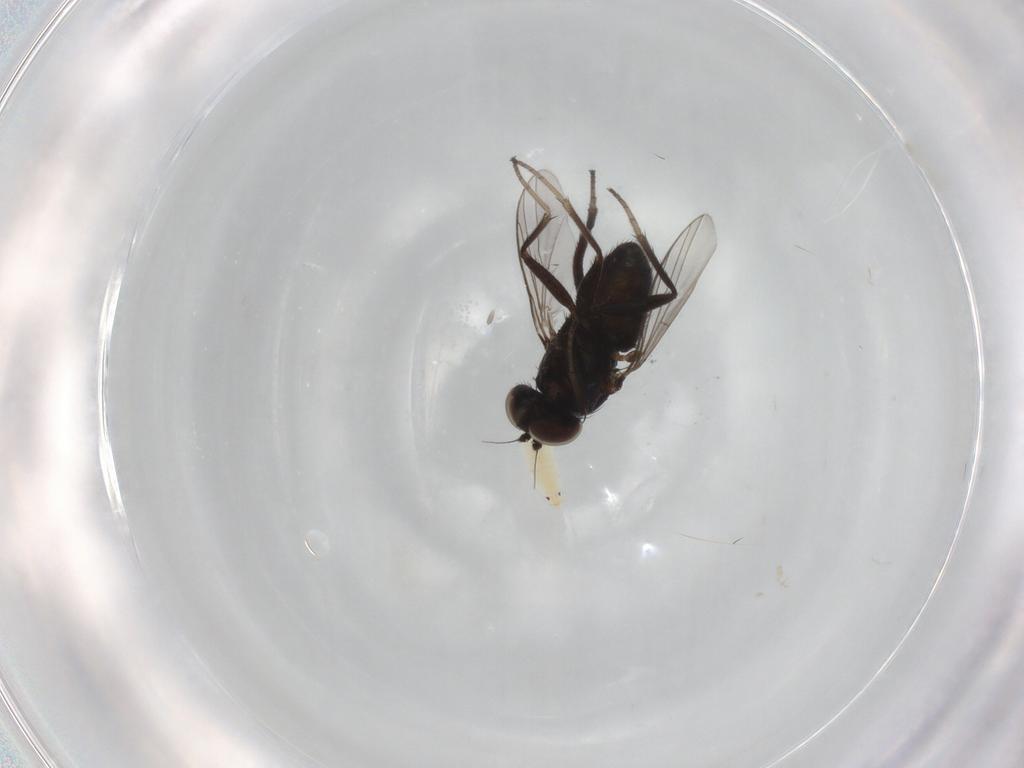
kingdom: Animalia
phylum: Arthropoda
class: Insecta
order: Diptera
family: Dolichopodidae
